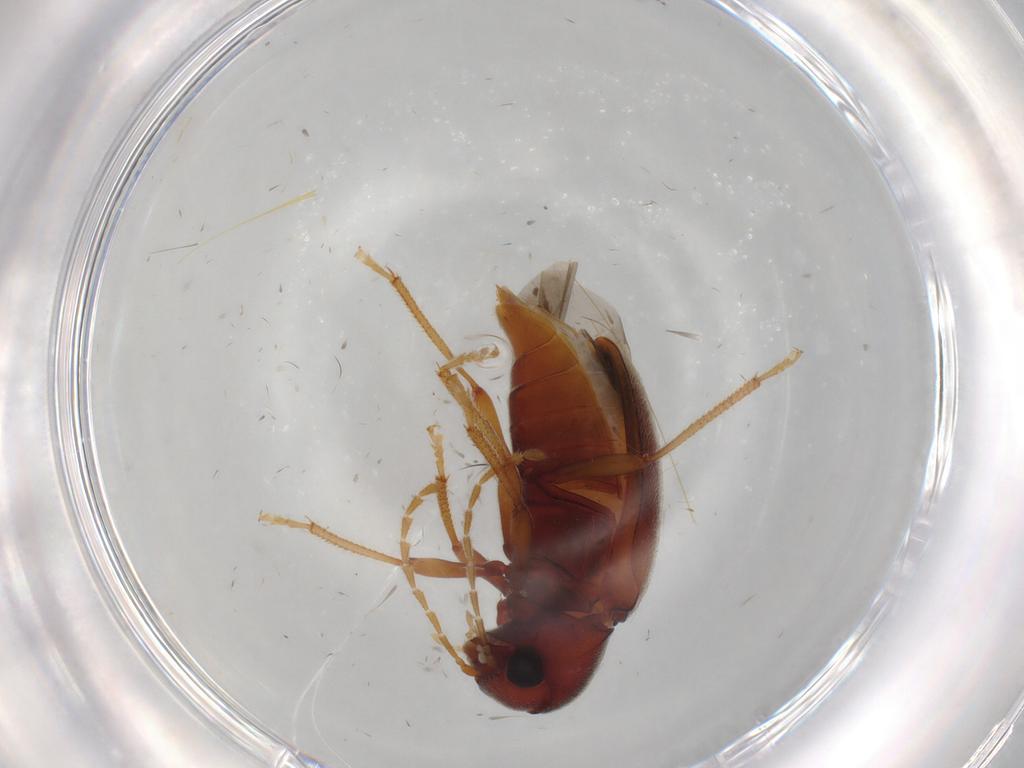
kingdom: Animalia
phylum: Arthropoda
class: Insecta
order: Coleoptera
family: Ptilodactylidae
